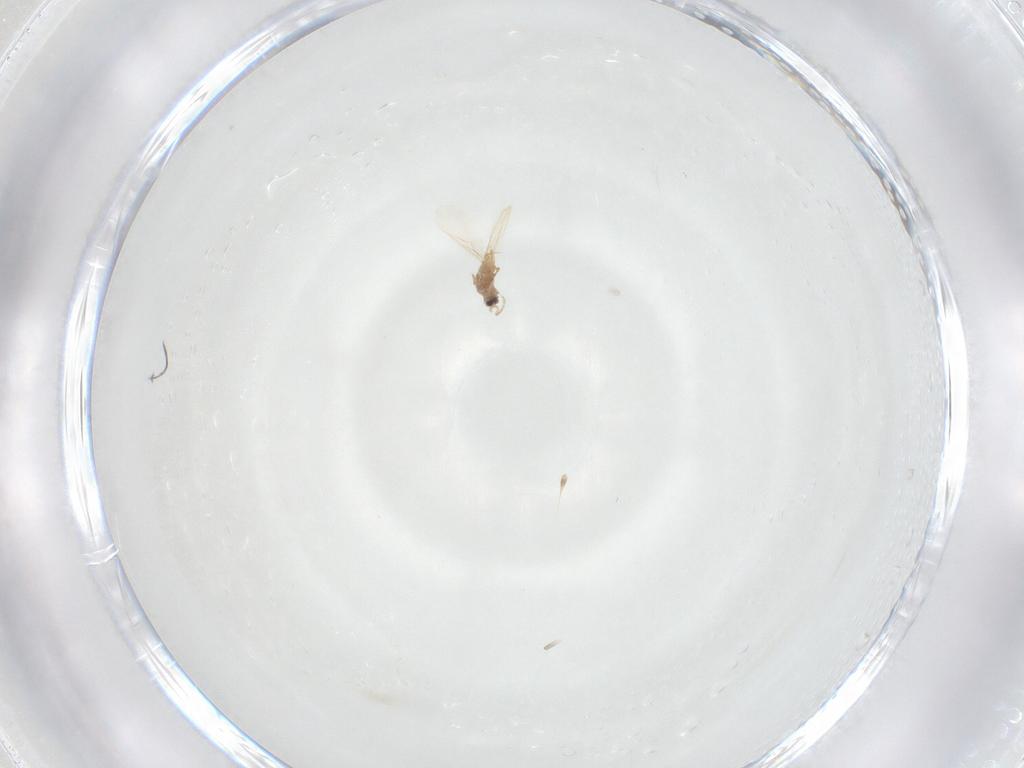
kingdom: Animalia
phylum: Arthropoda
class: Insecta
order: Hemiptera
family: Diaspididae
